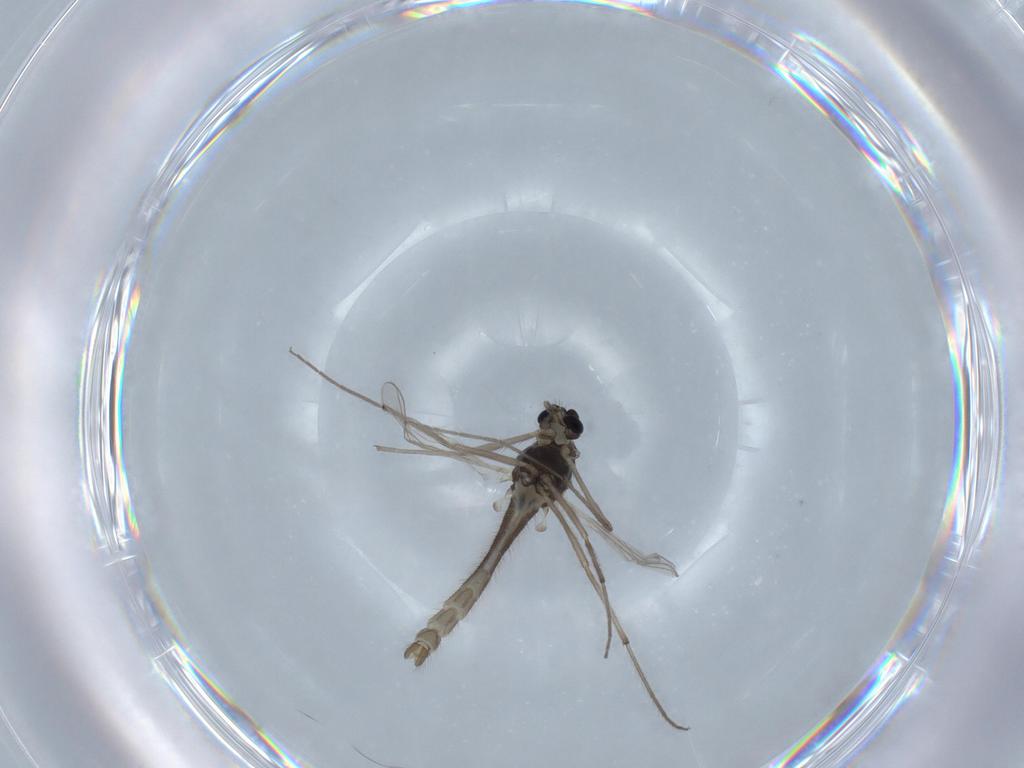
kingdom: Animalia
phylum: Arthropoda
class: Insecta
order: Diptera
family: Chironomidae
